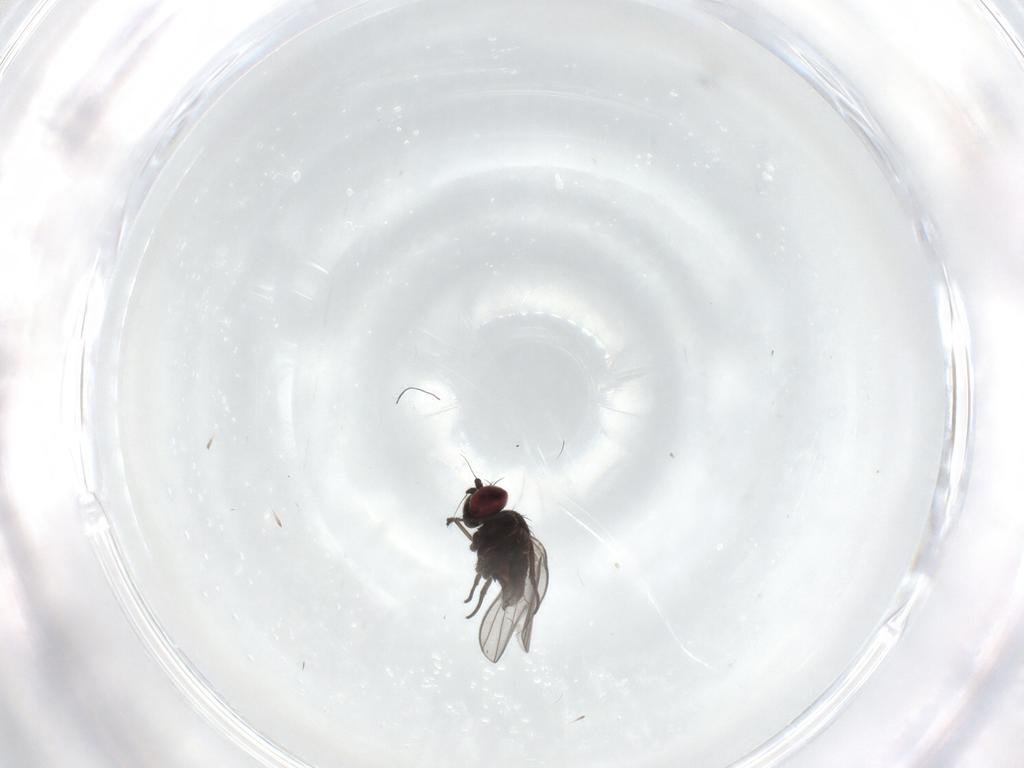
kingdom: Animalia
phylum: Arthropoda
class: Insecta
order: Diptera
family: Dolichopodidae
